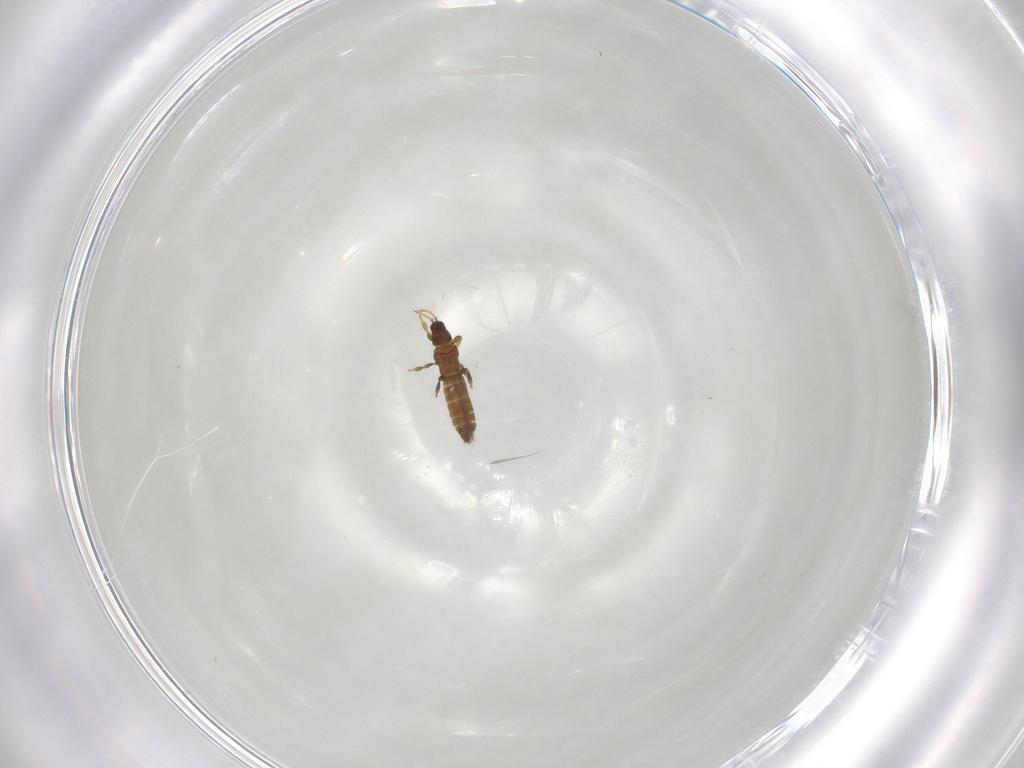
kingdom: Animalia
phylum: Arthropoda
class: Insecta
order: Thysanoptera
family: Thripidae
